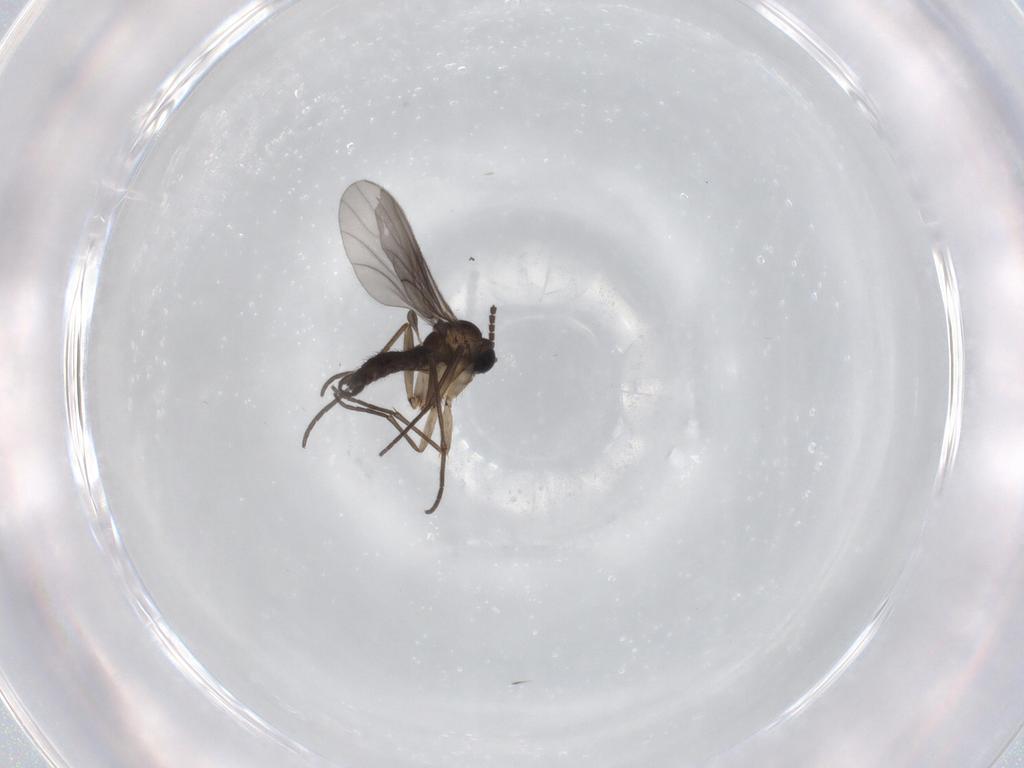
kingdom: Animalia
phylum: Arthropoda
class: Insecta
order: Diptera
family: Sciaridae
